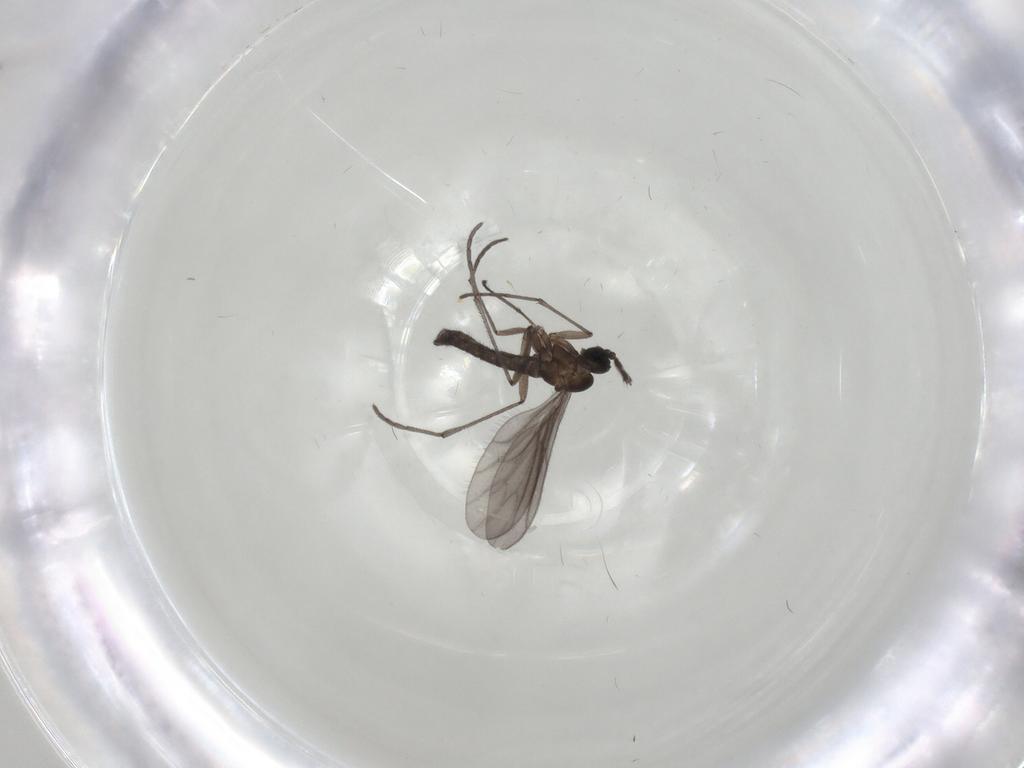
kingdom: Animalia
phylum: Arthropoda
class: Insecta
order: Diptera
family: Sciaridae
